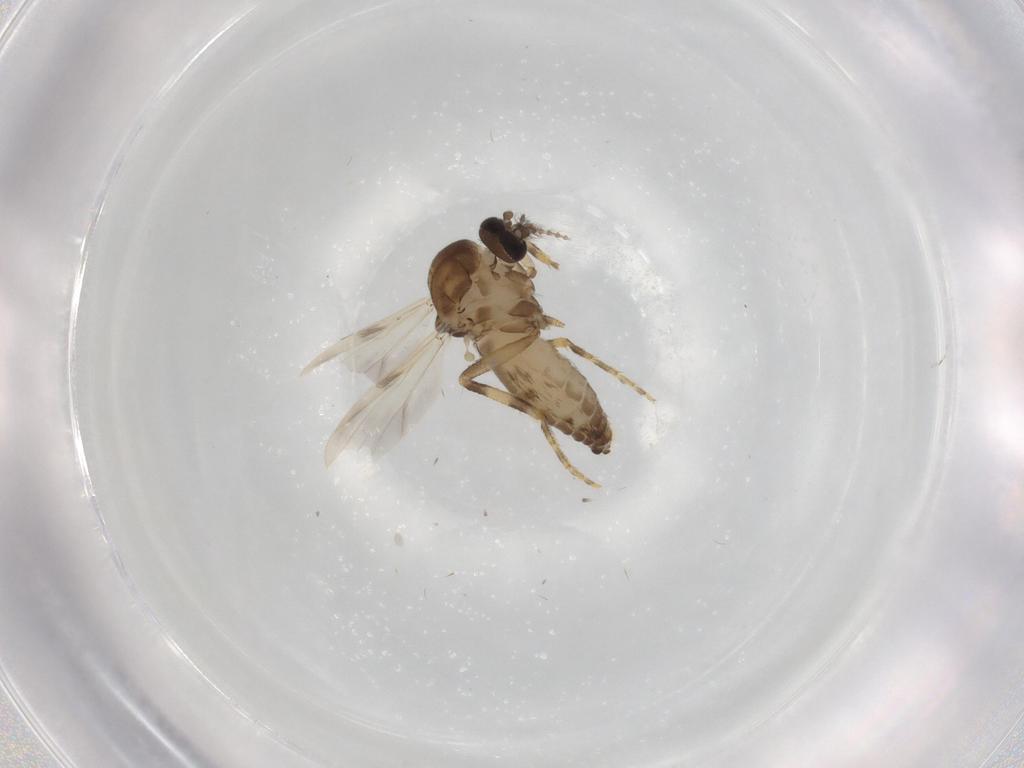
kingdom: Animalia
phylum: Arthropoda
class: Insecta
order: Diptera
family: Ceratopogonidae
